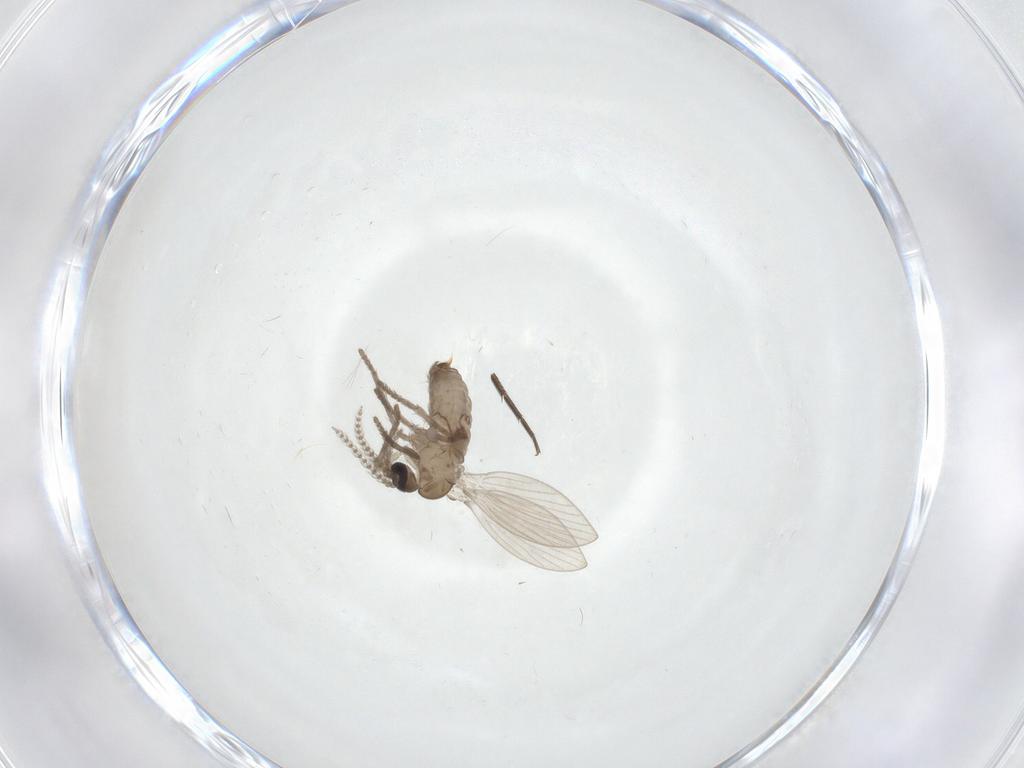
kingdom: Animalia
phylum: Arthropoda
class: Insecta
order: Diptera
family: Psychodidae
